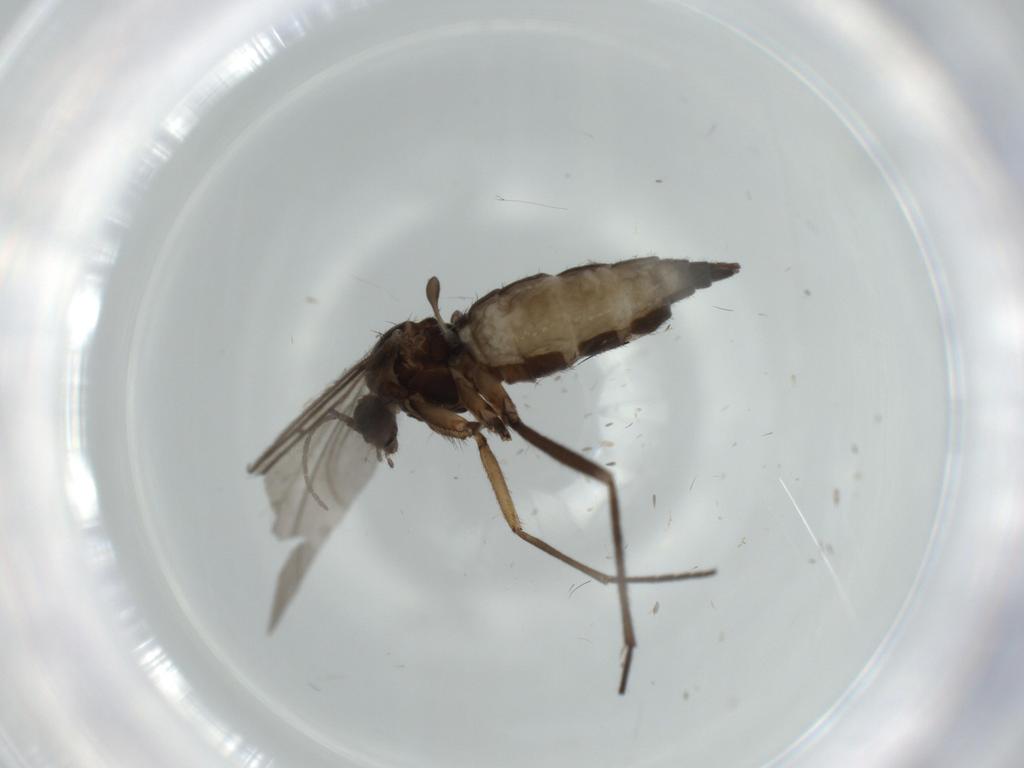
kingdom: Animalia
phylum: Arthropoda
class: Insecta
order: Diptera
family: Sciaridae
